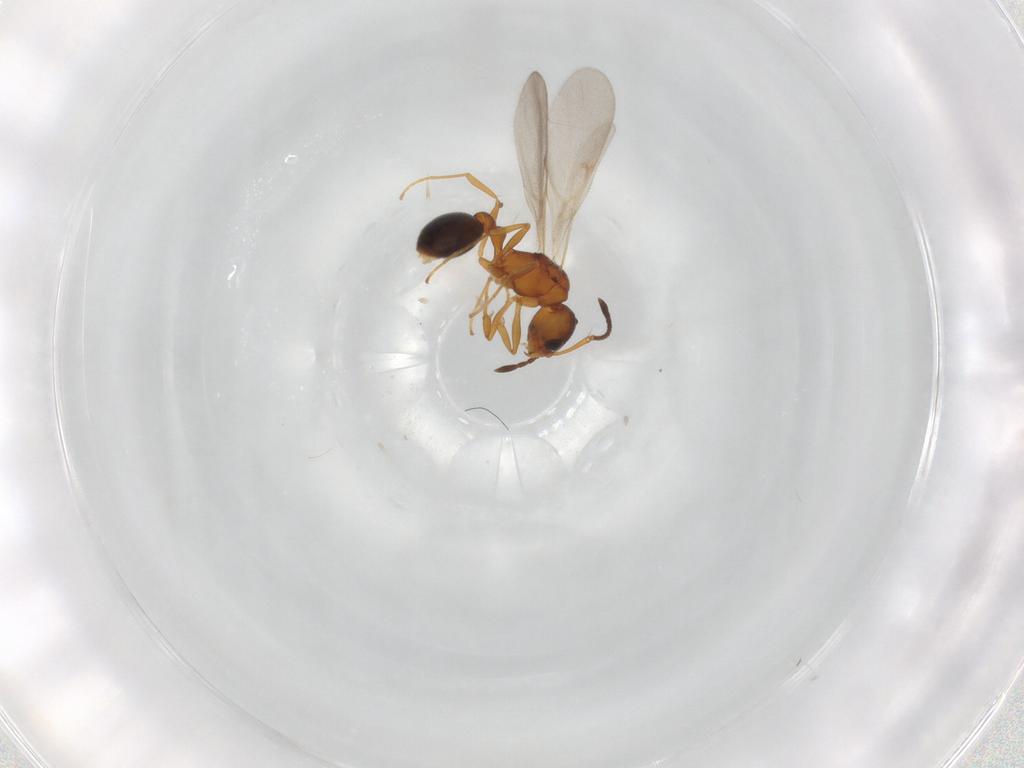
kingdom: Animalia
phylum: Arthropoda
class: Insecta
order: Hymenoptera
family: Formicidae
